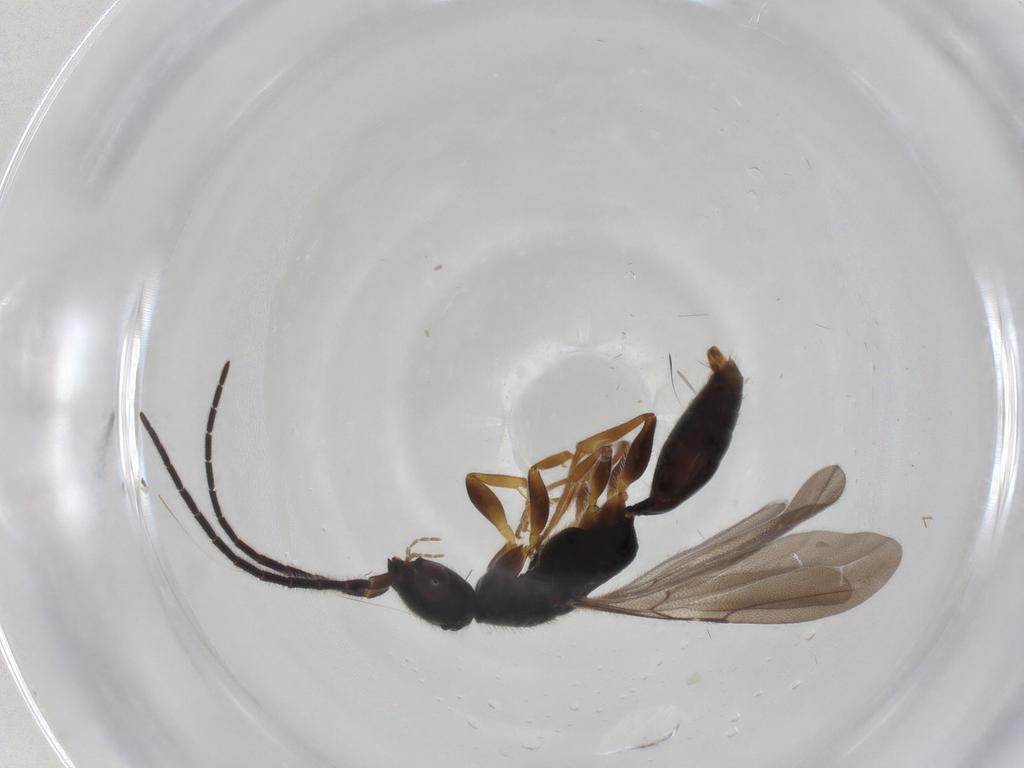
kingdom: Animalia
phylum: Arthropoda
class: Insecta
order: Hymenoptera
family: Bethylidae
